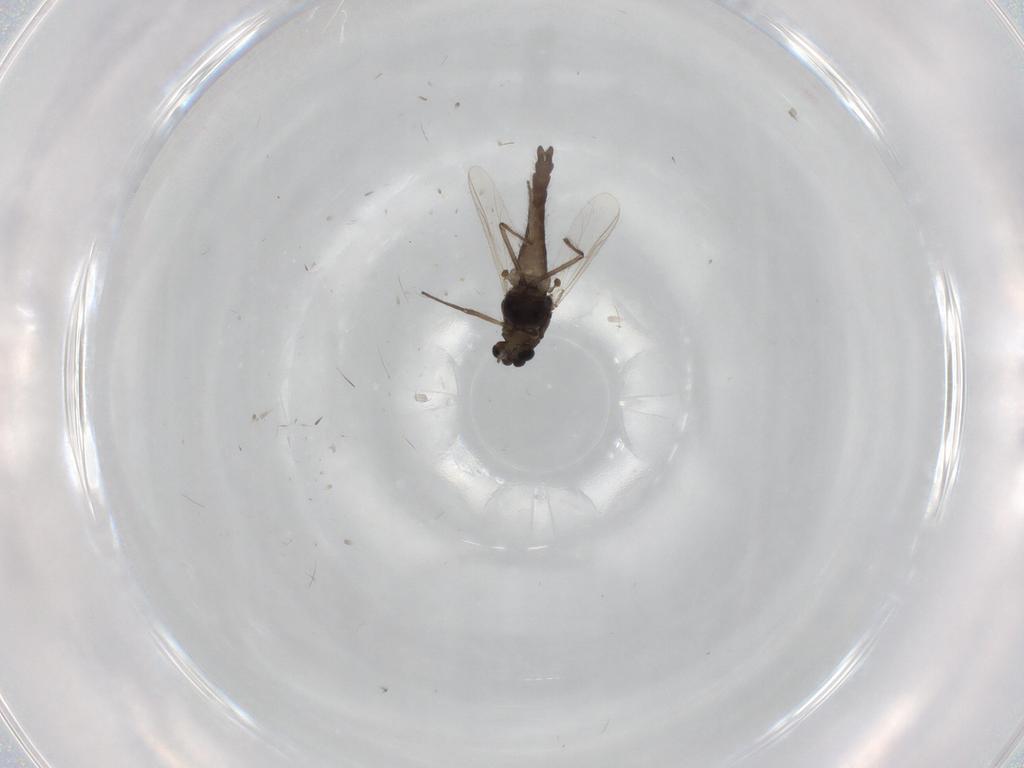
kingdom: Animalia
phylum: Arthropoda
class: Insecta
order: Diptera
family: Chironomidae
